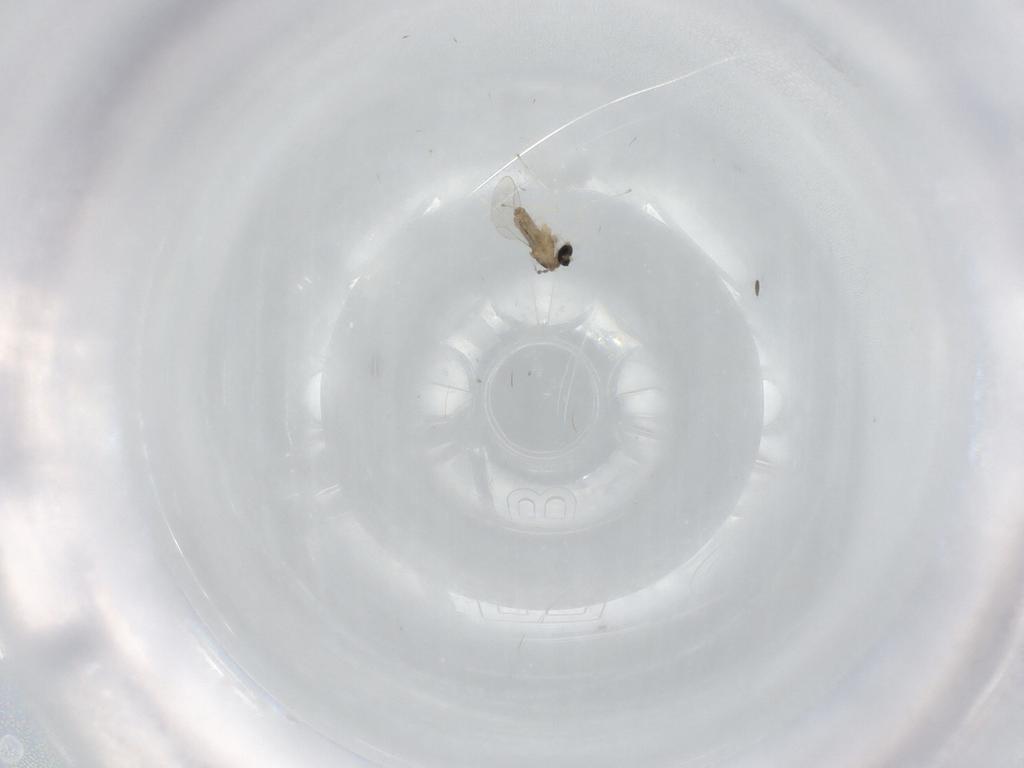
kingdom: Animalia
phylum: Arthropoda
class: Insecta
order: Diptera
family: Cecidomyiidae
